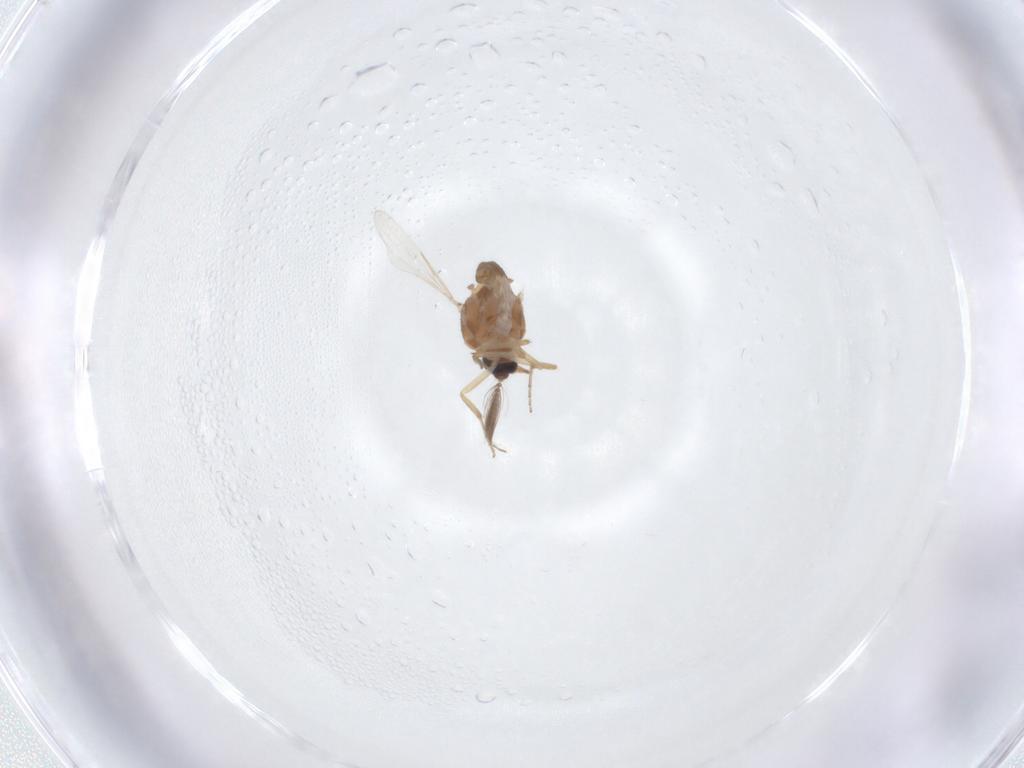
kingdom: Animalia
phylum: Arthropoda
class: Insecta
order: Diptera
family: Ceratopogonidae
